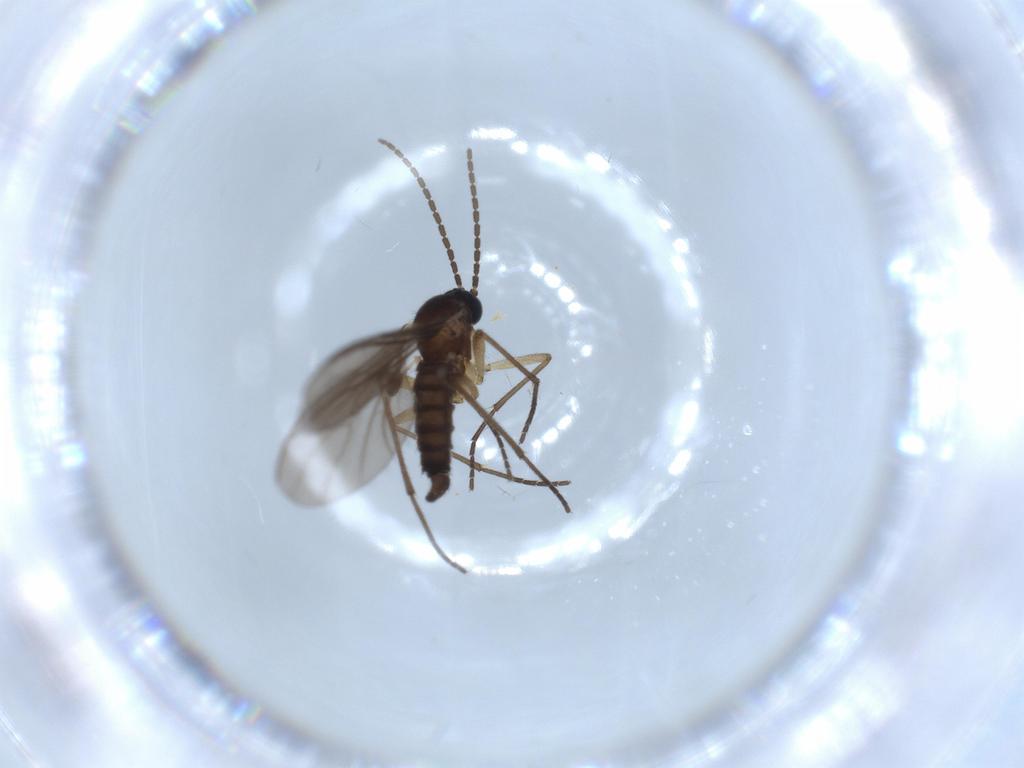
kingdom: Animalia
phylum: Arthropoda
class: Insecta
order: Diptera
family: Sciaridae
